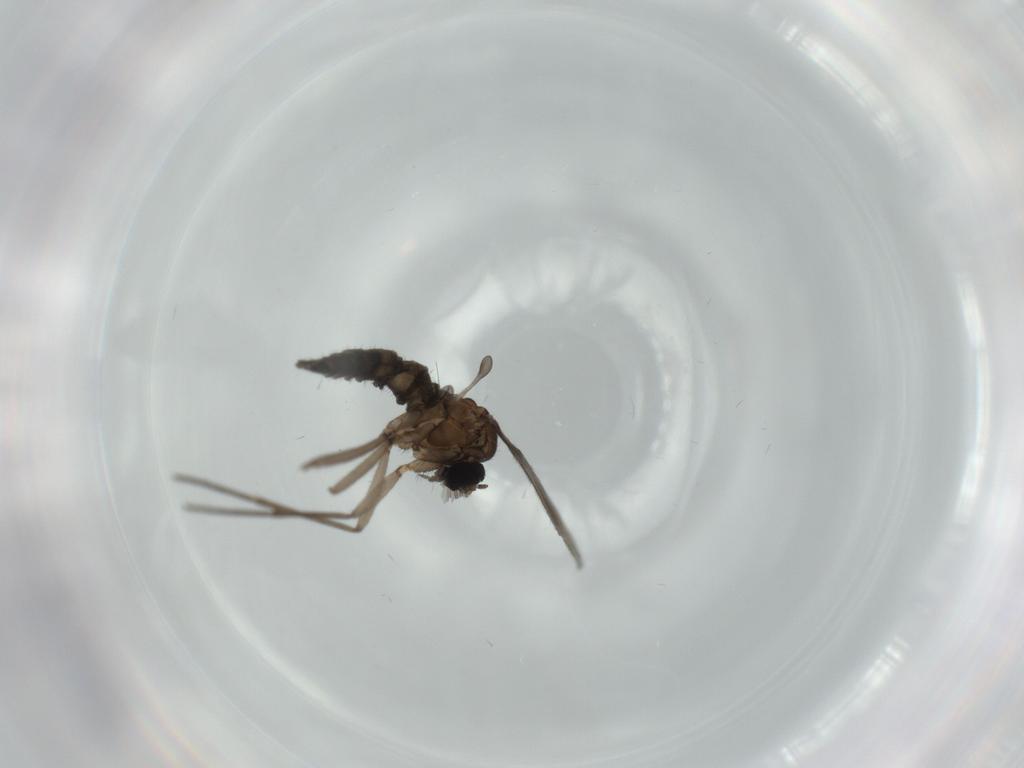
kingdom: Animalia
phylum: Arthropoda
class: Insecta
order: Diptera
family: Sciaridae
